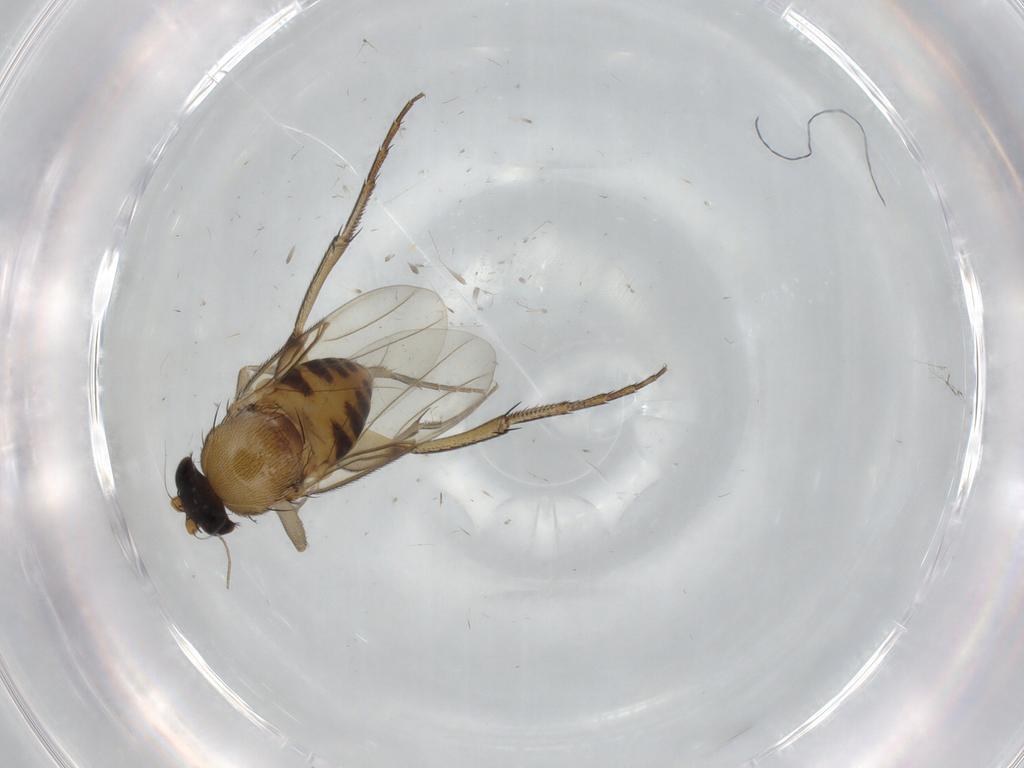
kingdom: Animalia
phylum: Arthropoda
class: Insecta
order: Diptera
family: Phoridae
